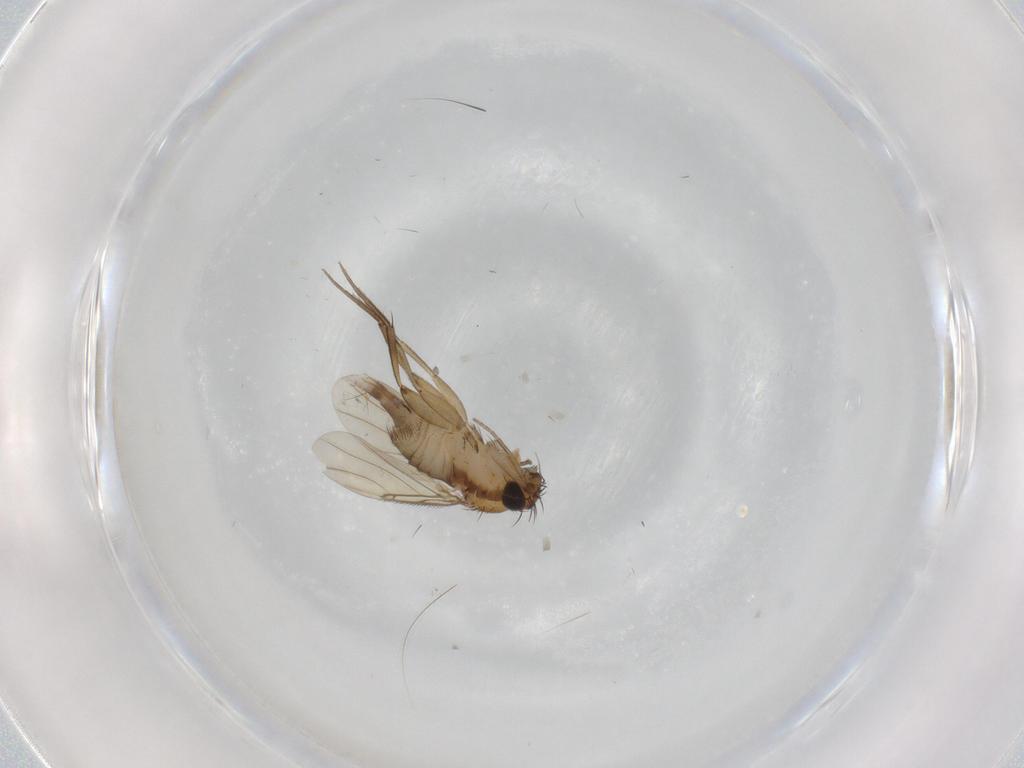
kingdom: Animalia
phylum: Arthropoda
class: Insecta
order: Diptera
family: Phoridae
